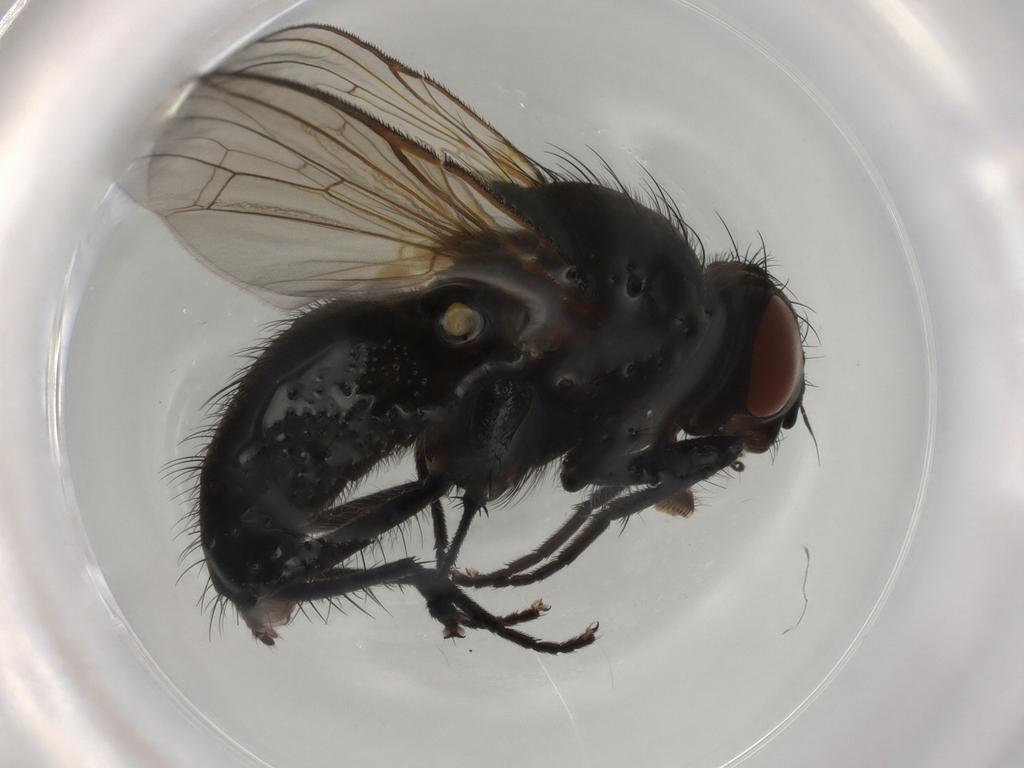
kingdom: Animalia
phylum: Arthropoda
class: Insecta
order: Diptera
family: Anthomyiidae
